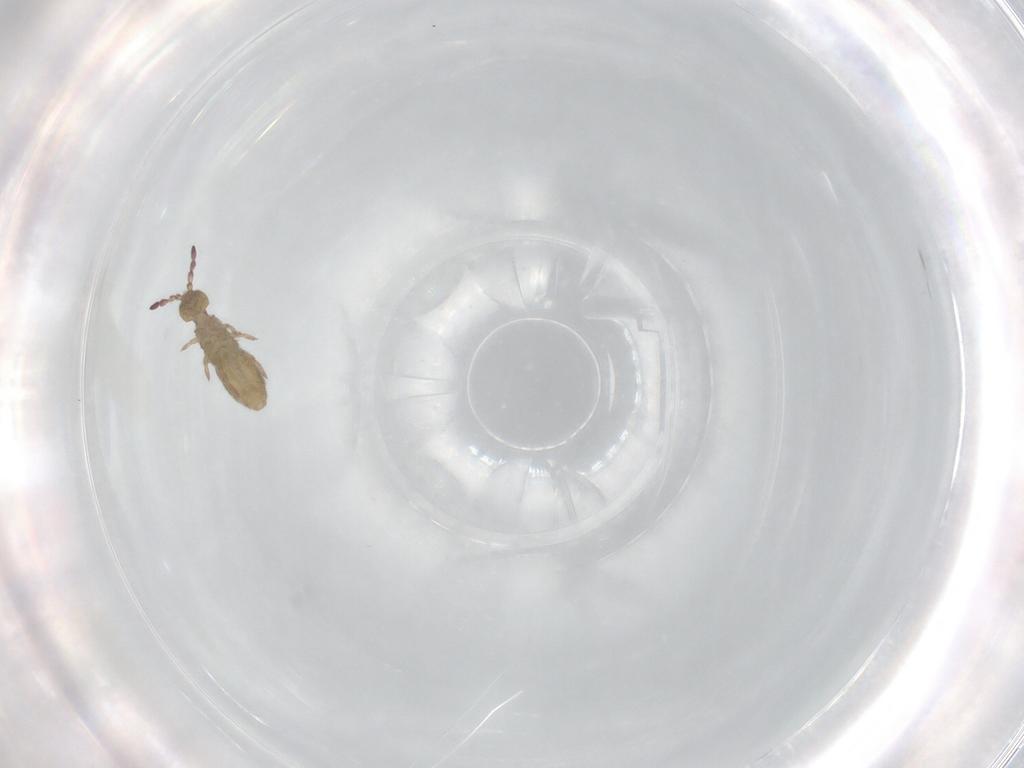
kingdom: Animalia
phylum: Arthropoda
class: Collembola
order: Entomobryomorpha
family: Isotomidae
